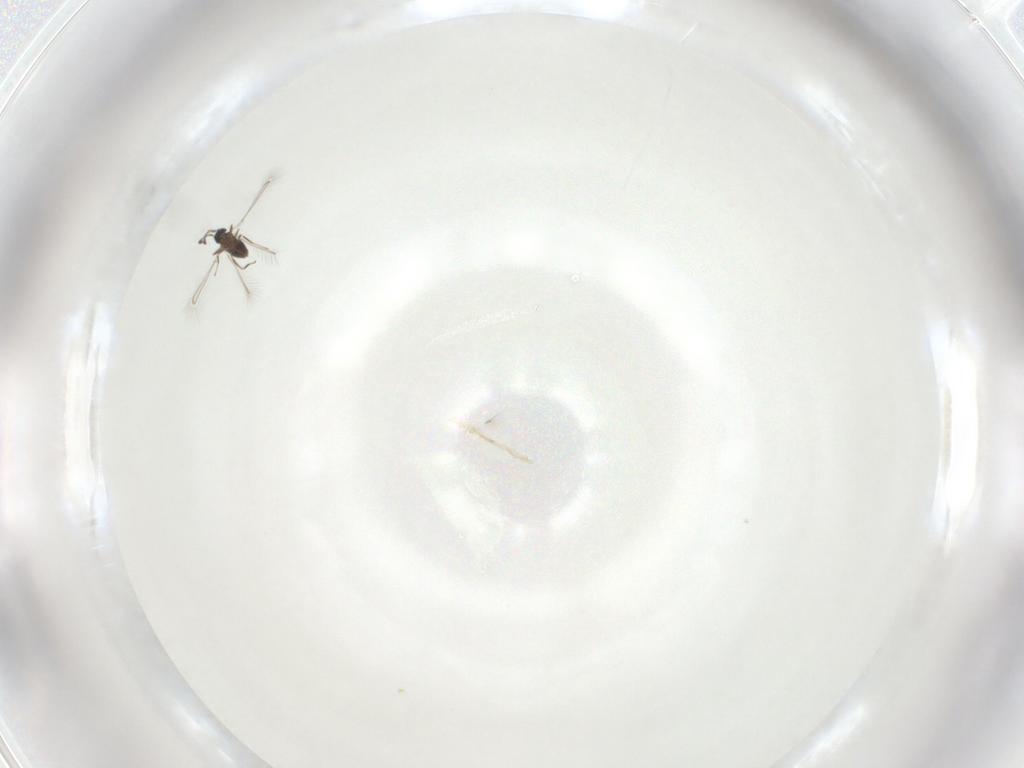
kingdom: Animalia
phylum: Arthropoda
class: Insecta
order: Hymenoptera
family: Mymaridae
